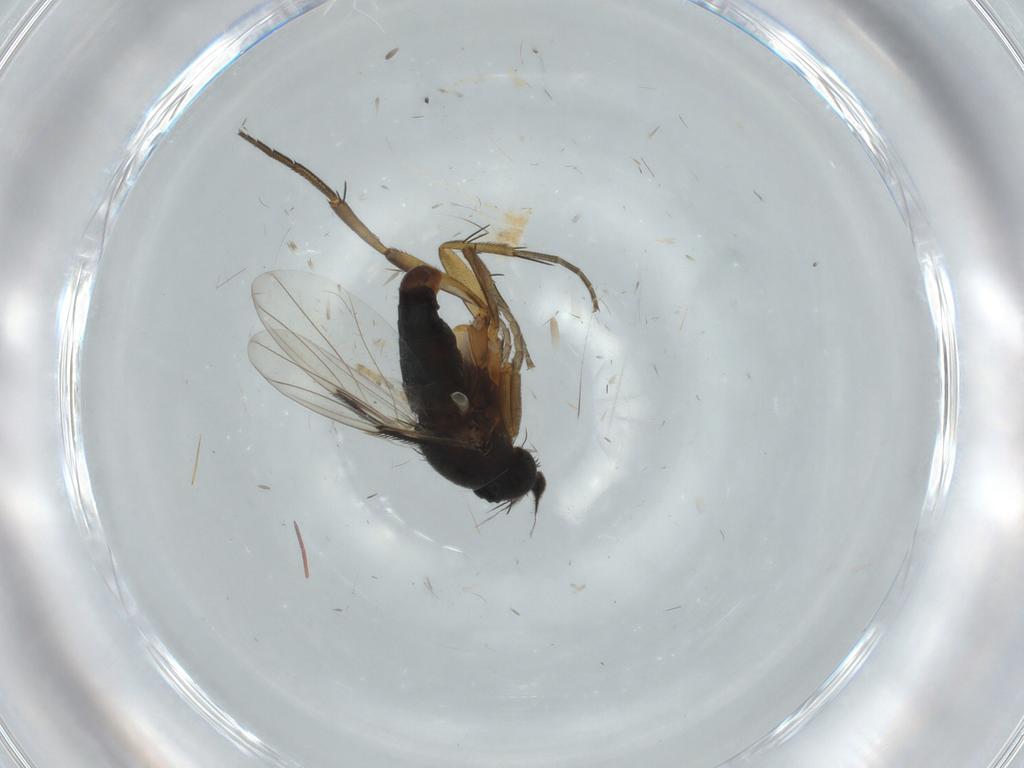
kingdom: Animalia
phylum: Arthropoda
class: Insecta
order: Diptera
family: Phoridae
